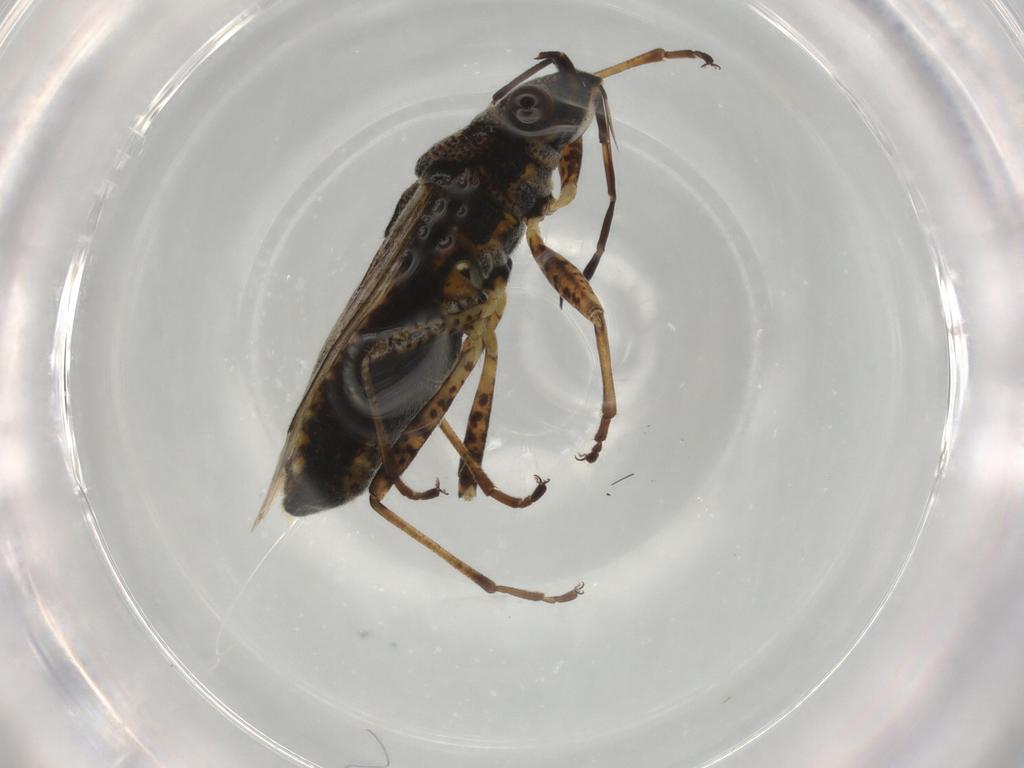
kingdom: Animalia
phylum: Arthropoda
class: Insecta
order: Hemiptera
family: Lygaeidae
